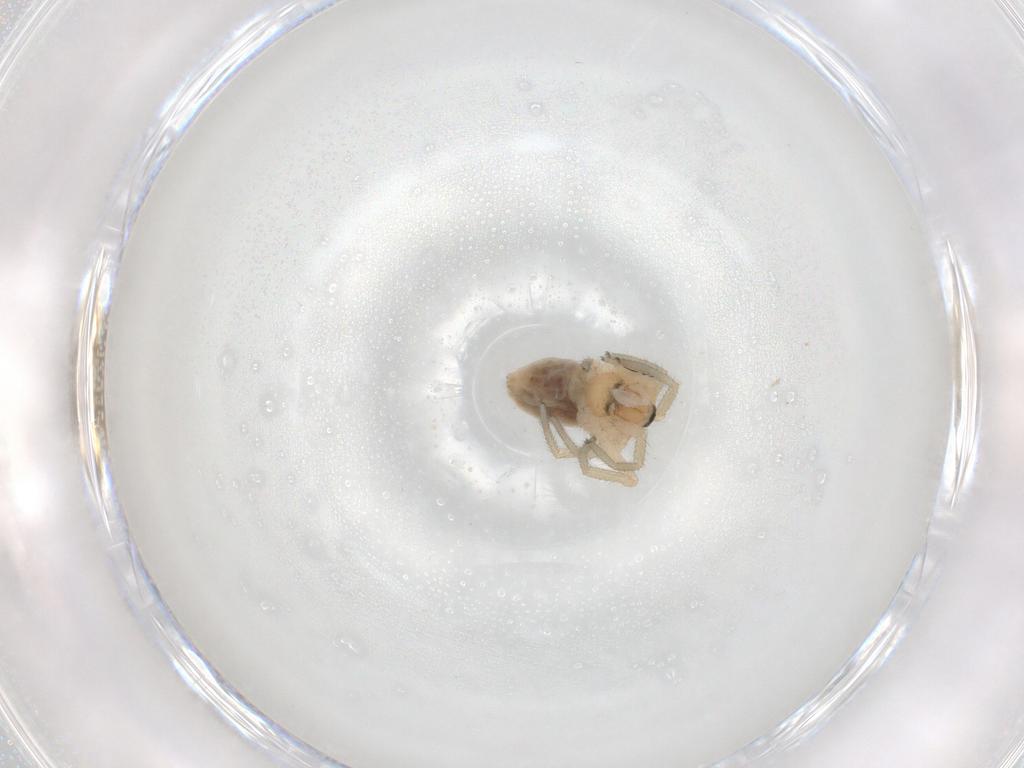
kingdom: Animalia
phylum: Arthropoda
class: Arachnida
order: Araneae
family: Linyphiidae
